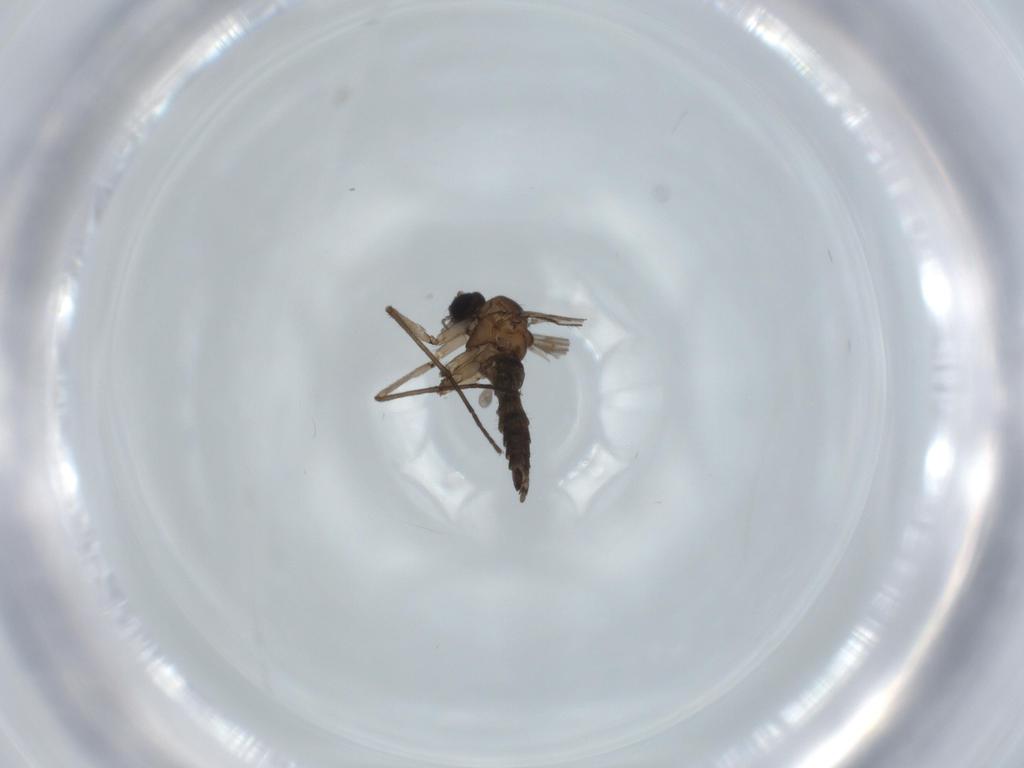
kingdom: Animalia
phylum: Arthropoda
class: Insecta
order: Diptera
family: Sciaridae
